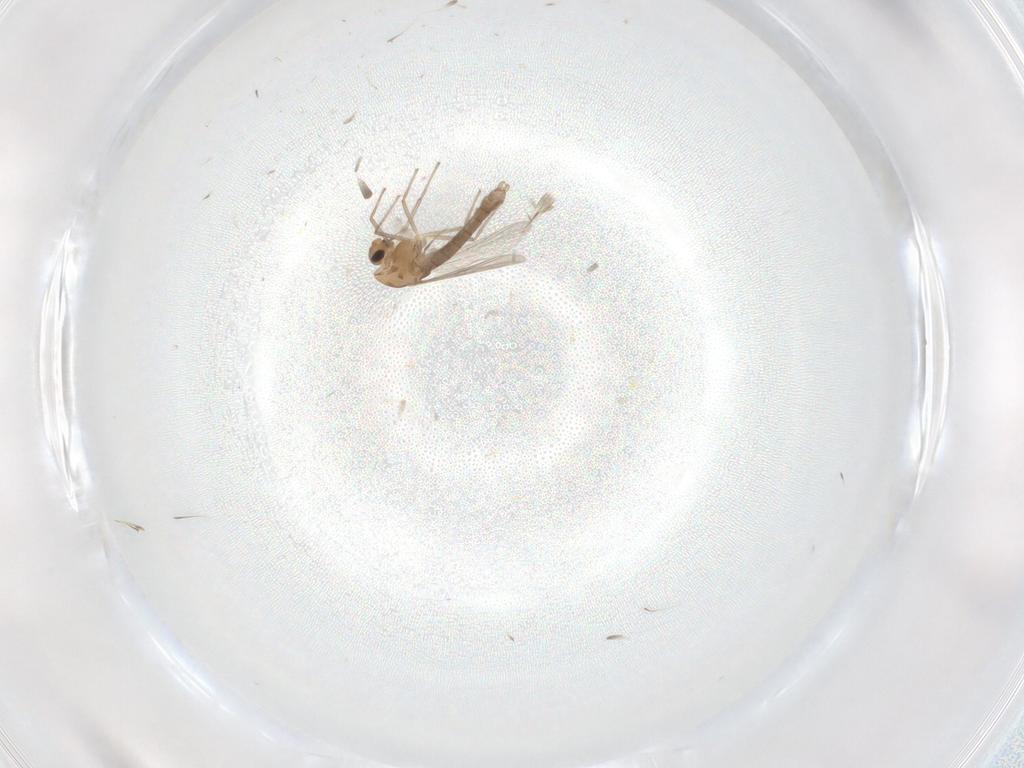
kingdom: Animalia
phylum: Arthropoda
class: Insecta
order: Diptera
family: Chironomidae
